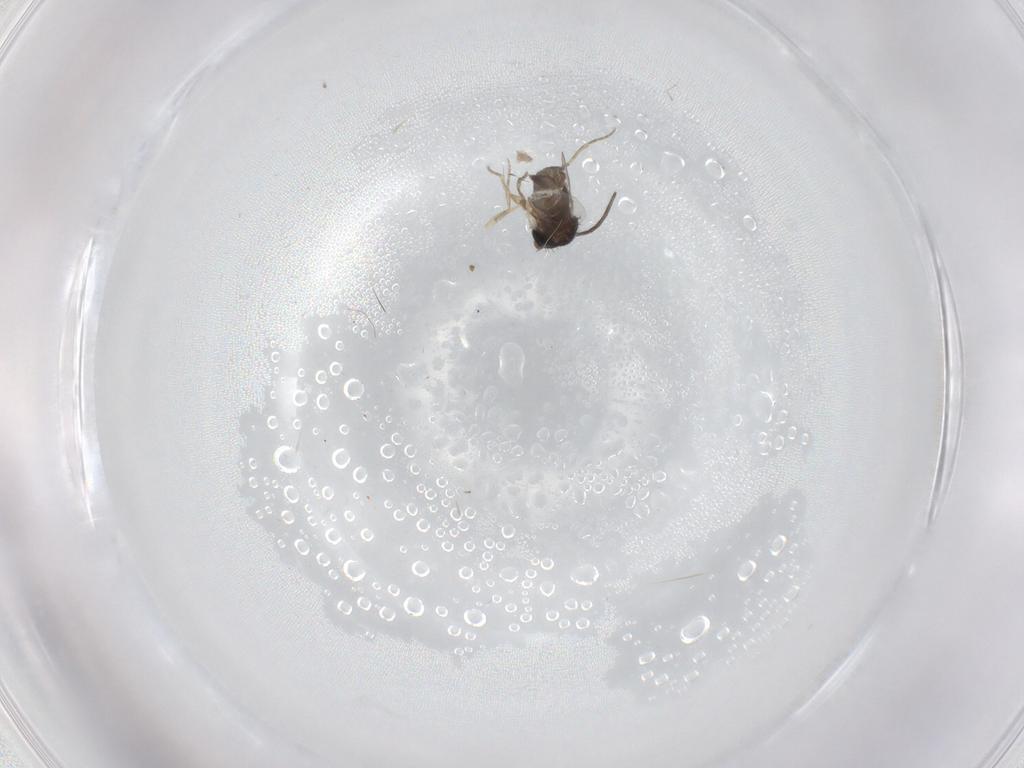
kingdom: Animalia
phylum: Arthropoda
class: Insecta
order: Diptera
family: Phoridae
